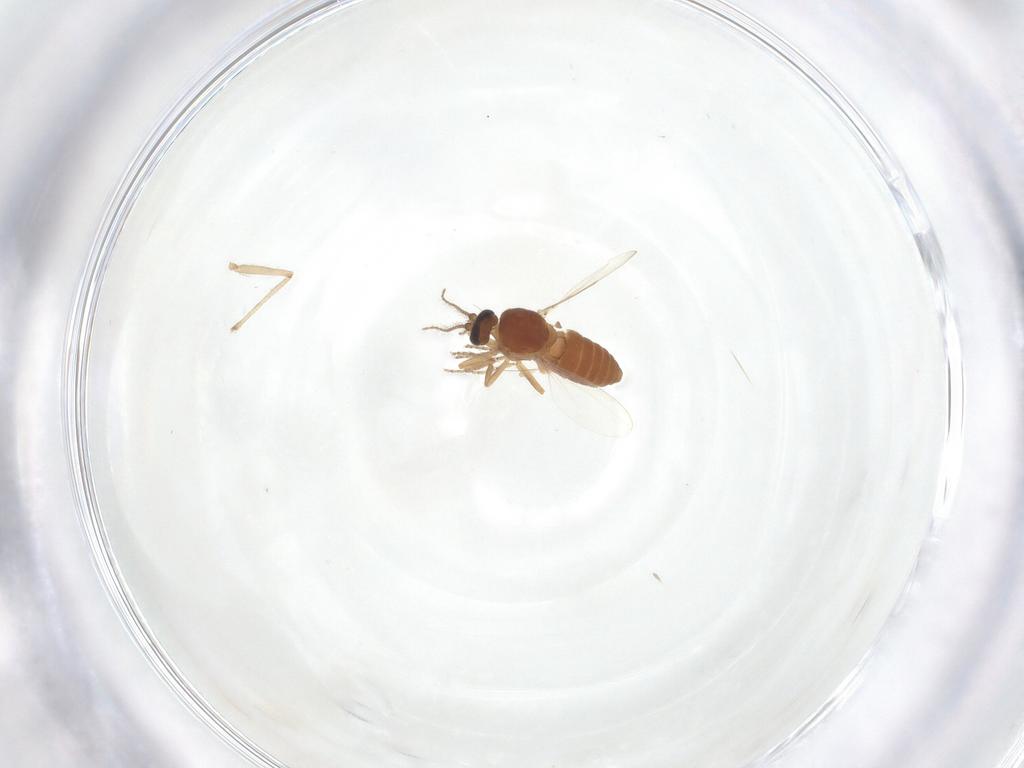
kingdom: Animalia
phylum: Arthropoda
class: Insecta
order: Diptera
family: Ceratopogonidae
